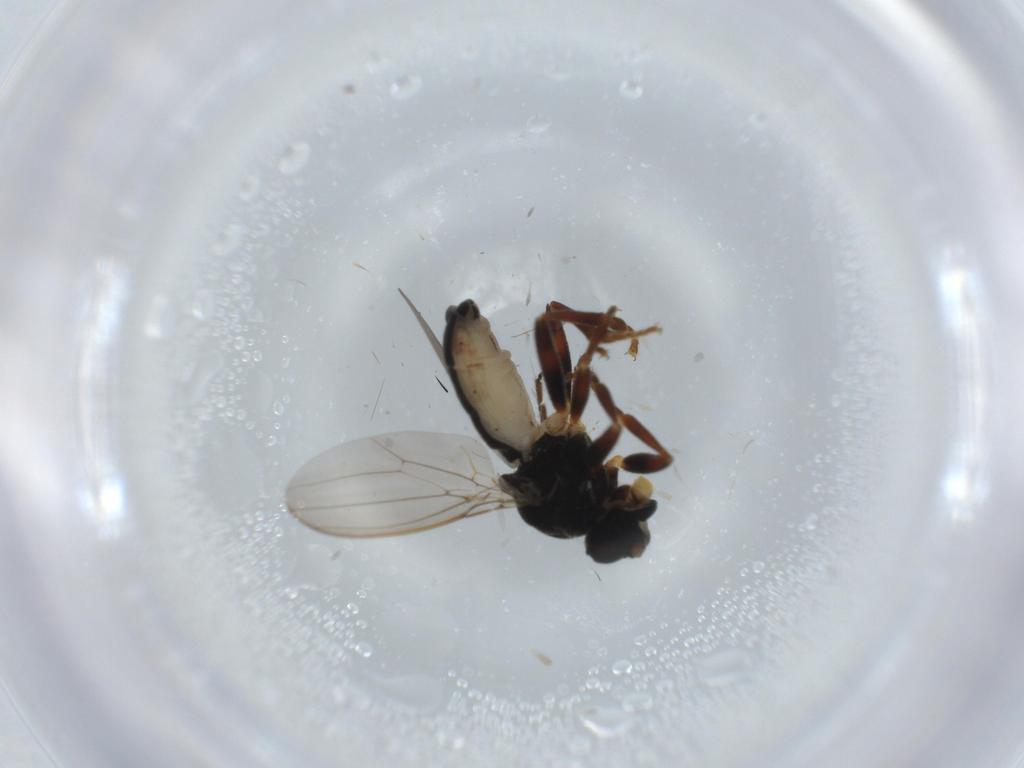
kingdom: Animalia
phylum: Arthropoda
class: Insecta
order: Diptera
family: Sphaeroceridae
